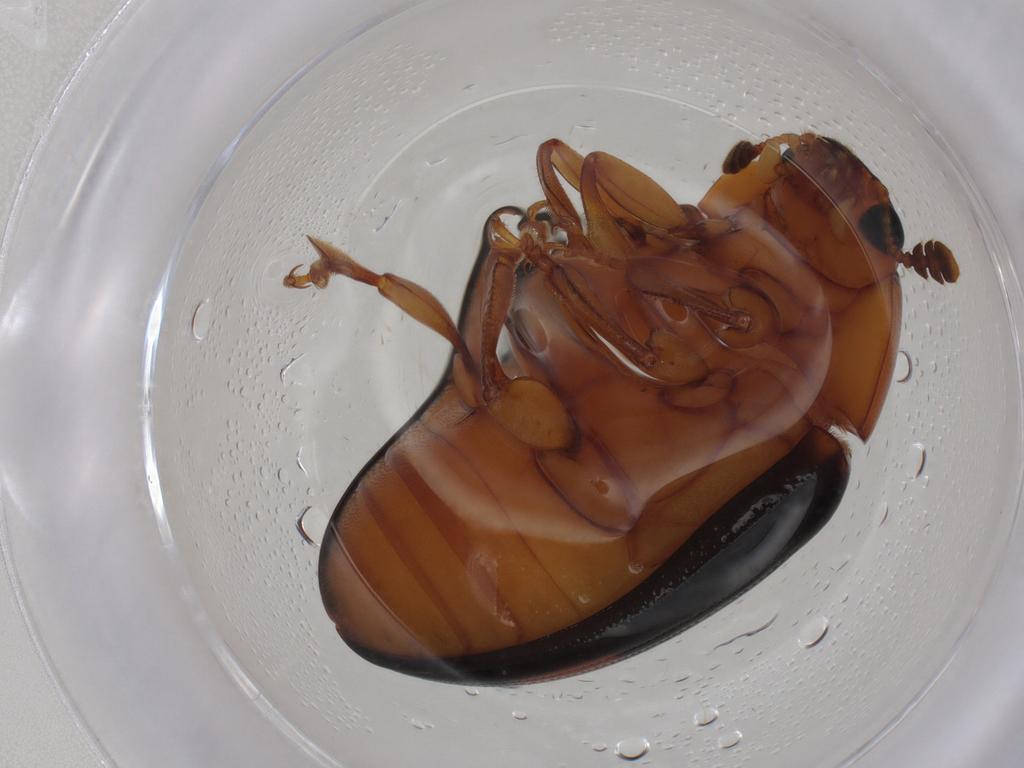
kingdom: Animalia
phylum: Arthropoda
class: Insecta
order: Coleoptera
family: Erotylidae
